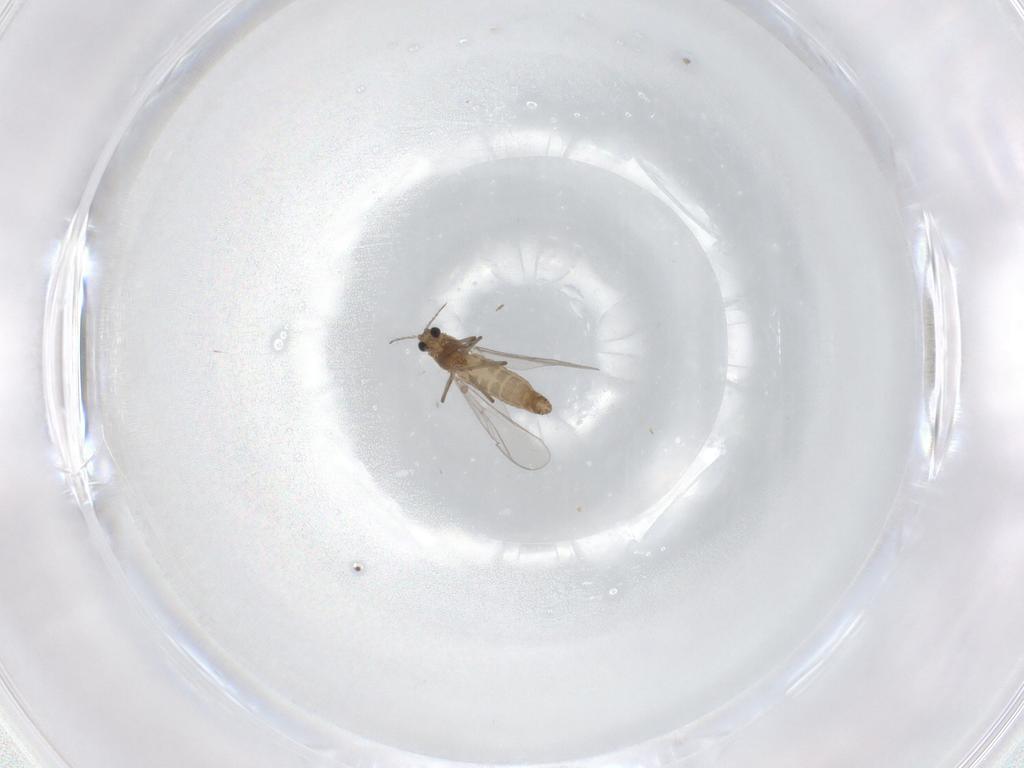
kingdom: Animalia
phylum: Arthropoda
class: Insecta
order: Diptera
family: Chironomidae
